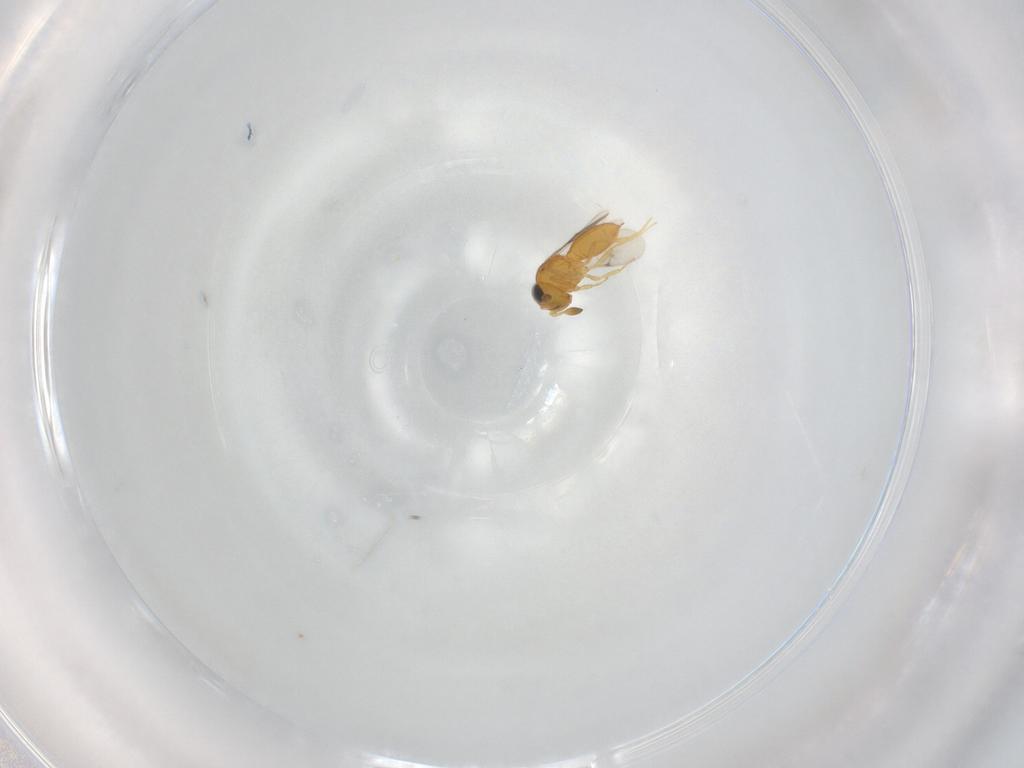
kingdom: Animalia
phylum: Arthropoda
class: Insecta
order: Hymenoptera
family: Scelionidae
